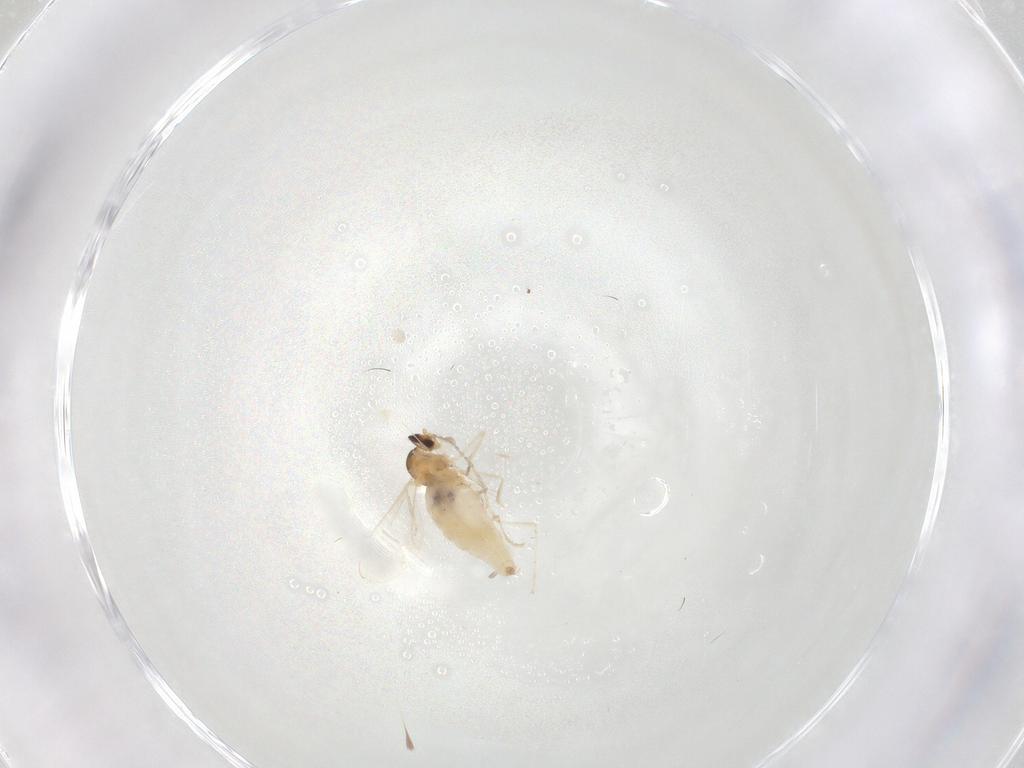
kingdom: Animalia
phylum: Arthropoda
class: Insecta
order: Diptera
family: Cecidomyiidae
